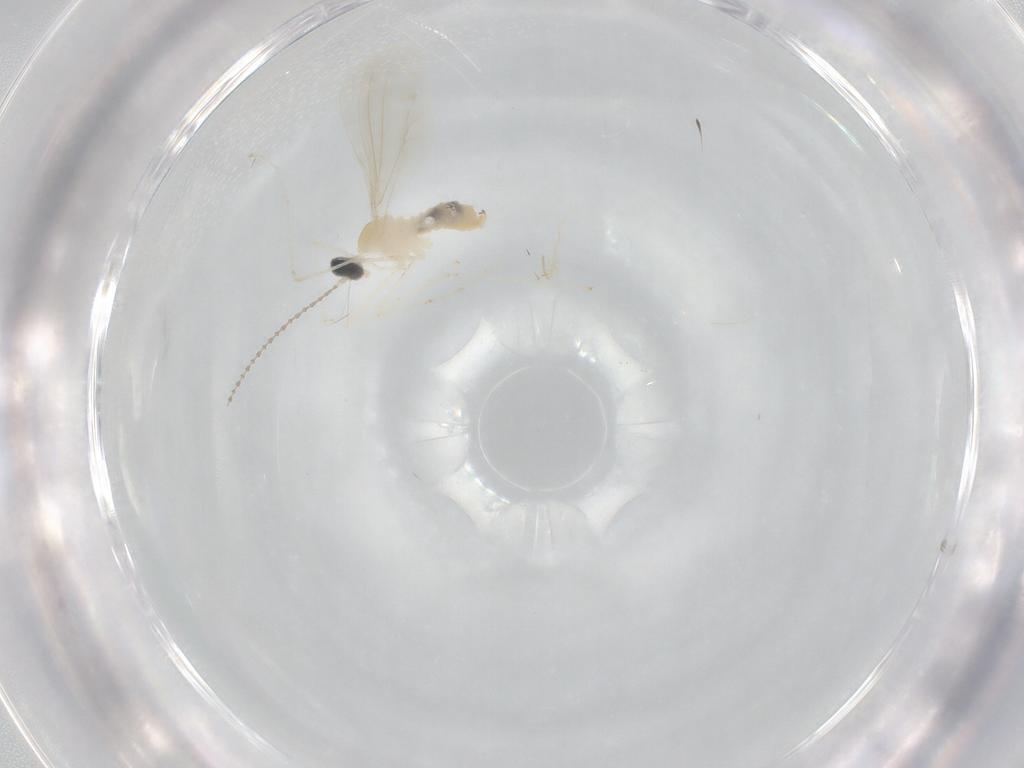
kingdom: Animalia
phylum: Arthropoda
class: Insecta
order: Diptera
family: Cecidomyiidae
